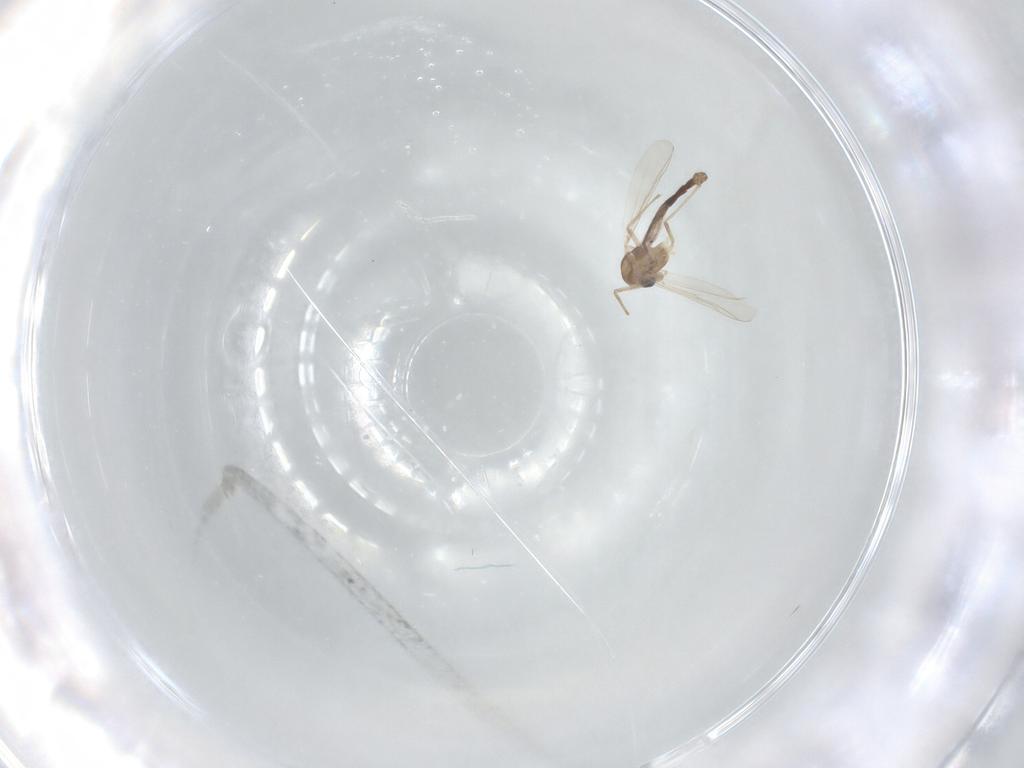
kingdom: Animalia
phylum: Arthropoda
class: Insecta
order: Diptera
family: Chironomidae
